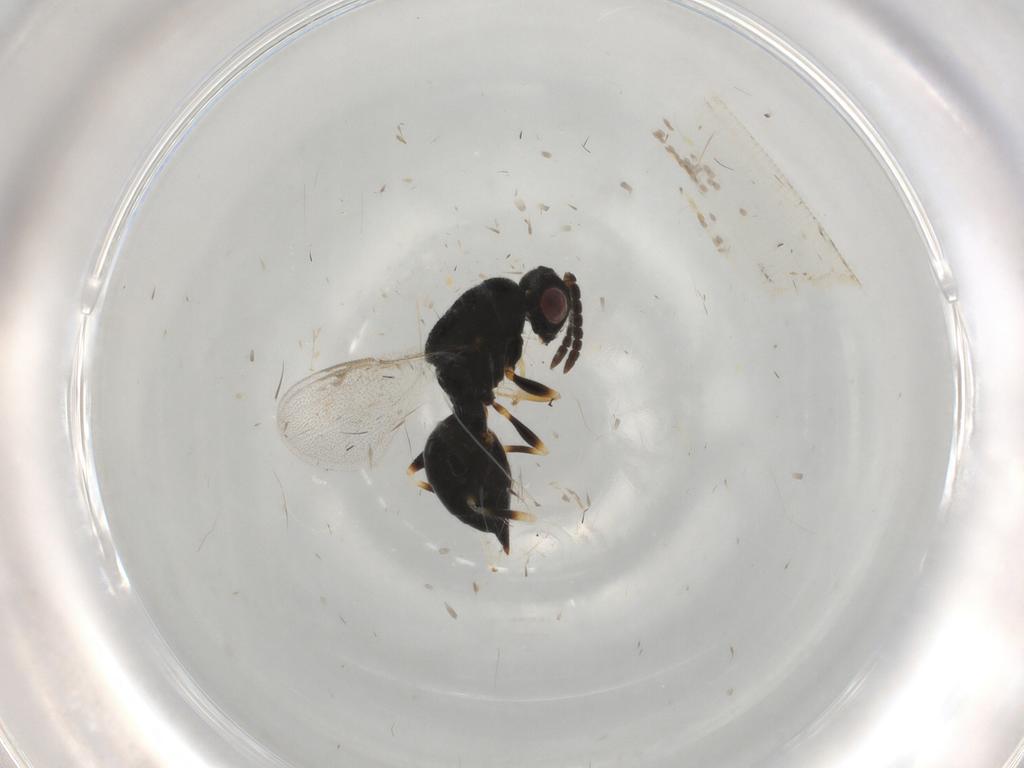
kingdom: Animalia
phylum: Arthropoda
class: Insecta
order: Hymenoptera
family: Eurytomidae
